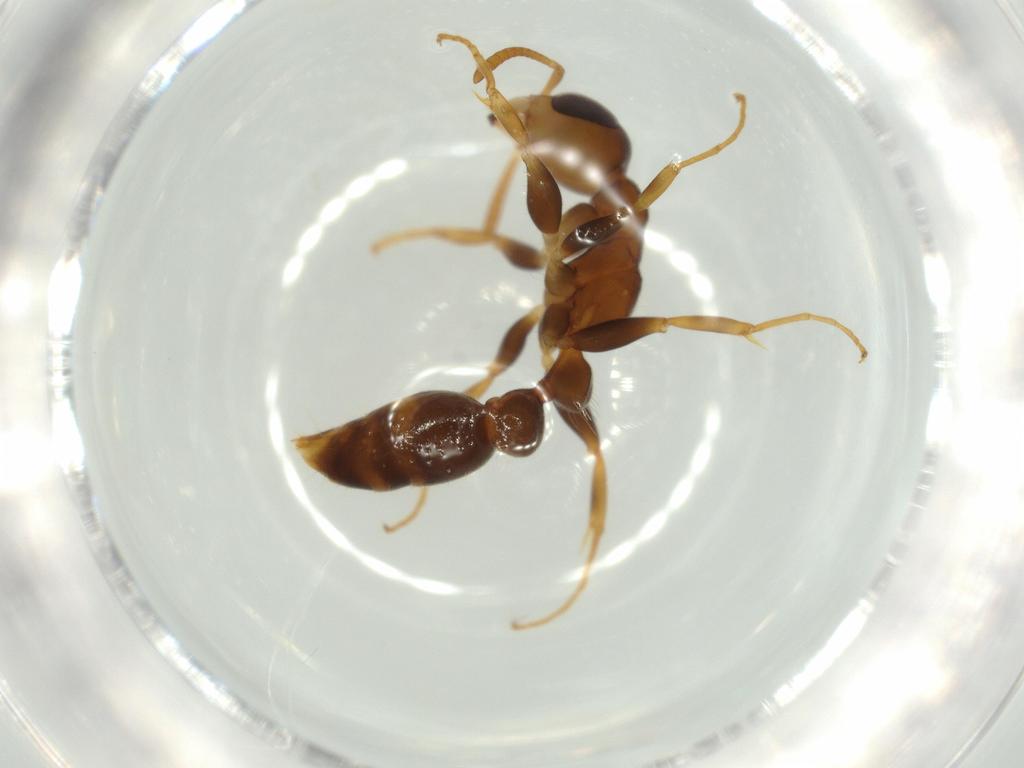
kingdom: Animalia
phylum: Arthropoda
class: Insecta
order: Hymenoptera
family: Formicidae
